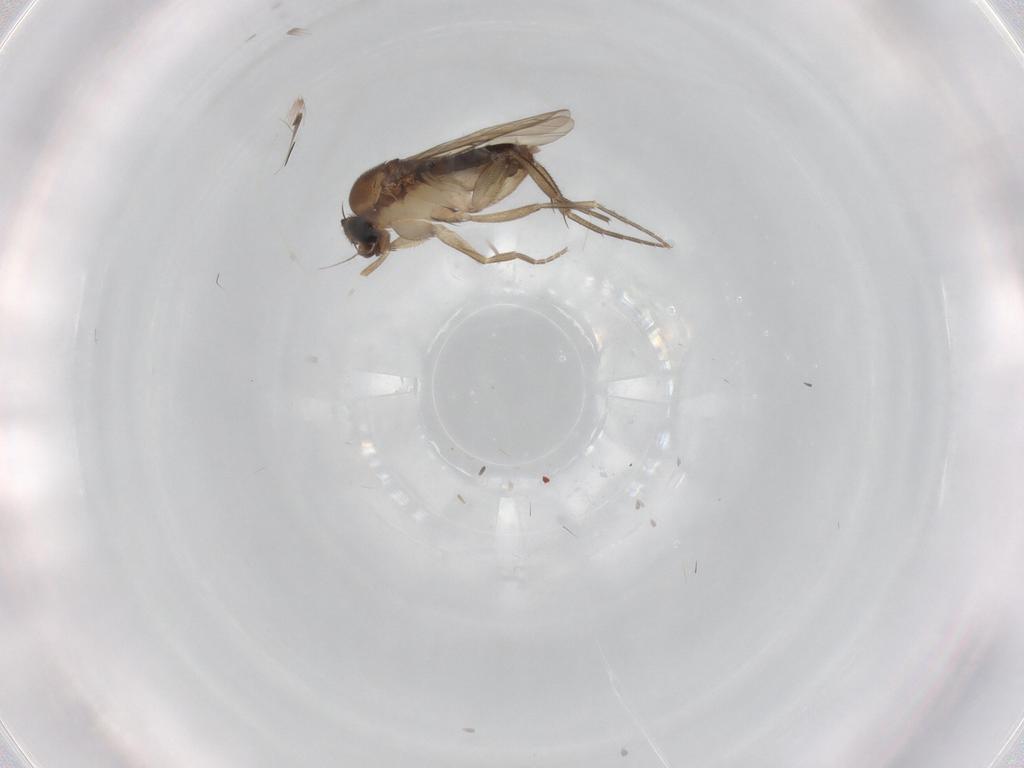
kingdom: Animalia
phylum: Arthropoda
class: Insecta
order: Diptera
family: Phoridae
